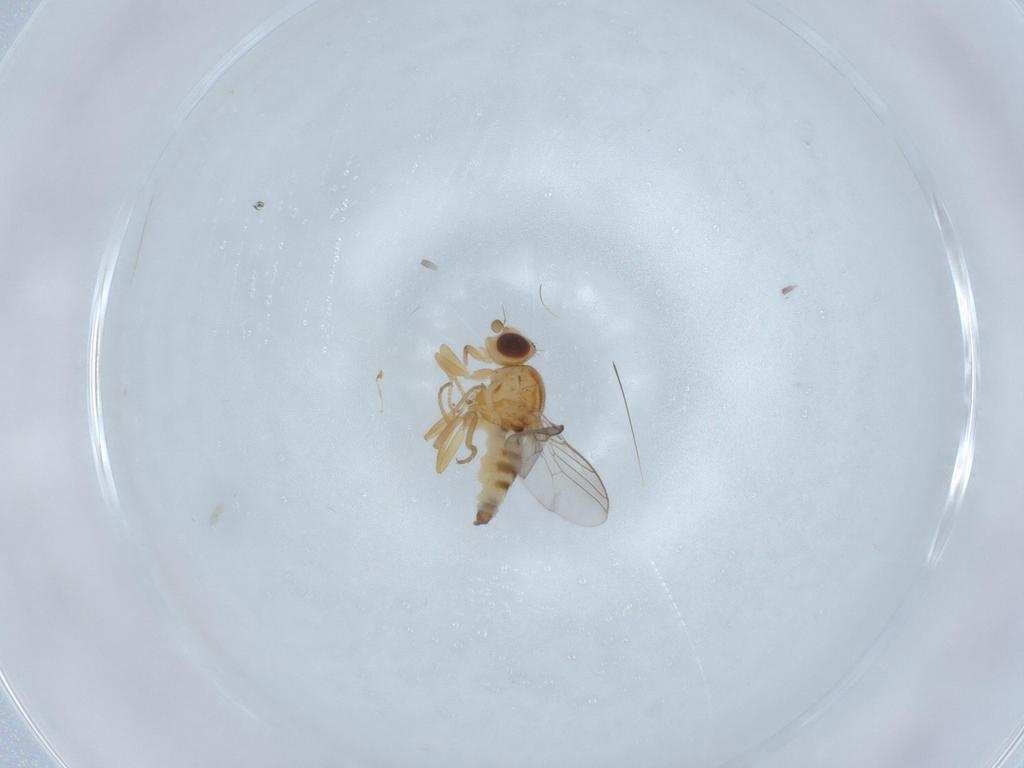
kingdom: Animalia
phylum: Arthropoda
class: Insecta
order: Diptera
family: Chloropidae
